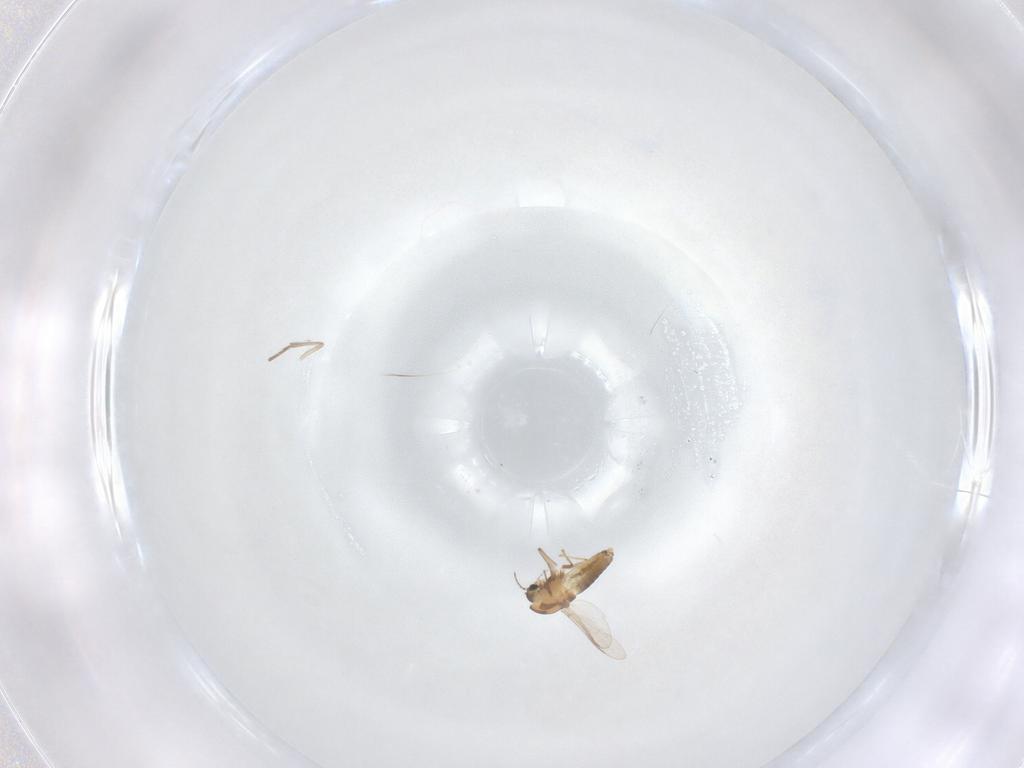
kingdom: Animalia
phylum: Arthropoda
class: Insecta
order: Diptera
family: Chironomidae
